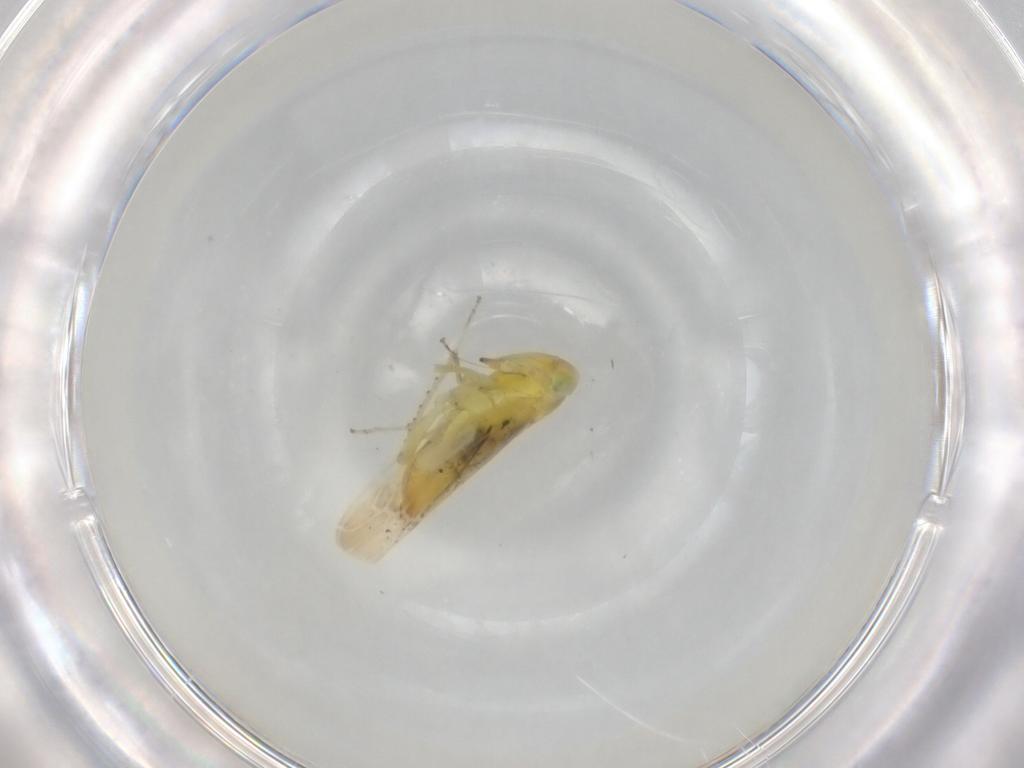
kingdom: Animalia
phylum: Arthropoda
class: Insecta
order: Hemiptera
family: Cicadellidae
